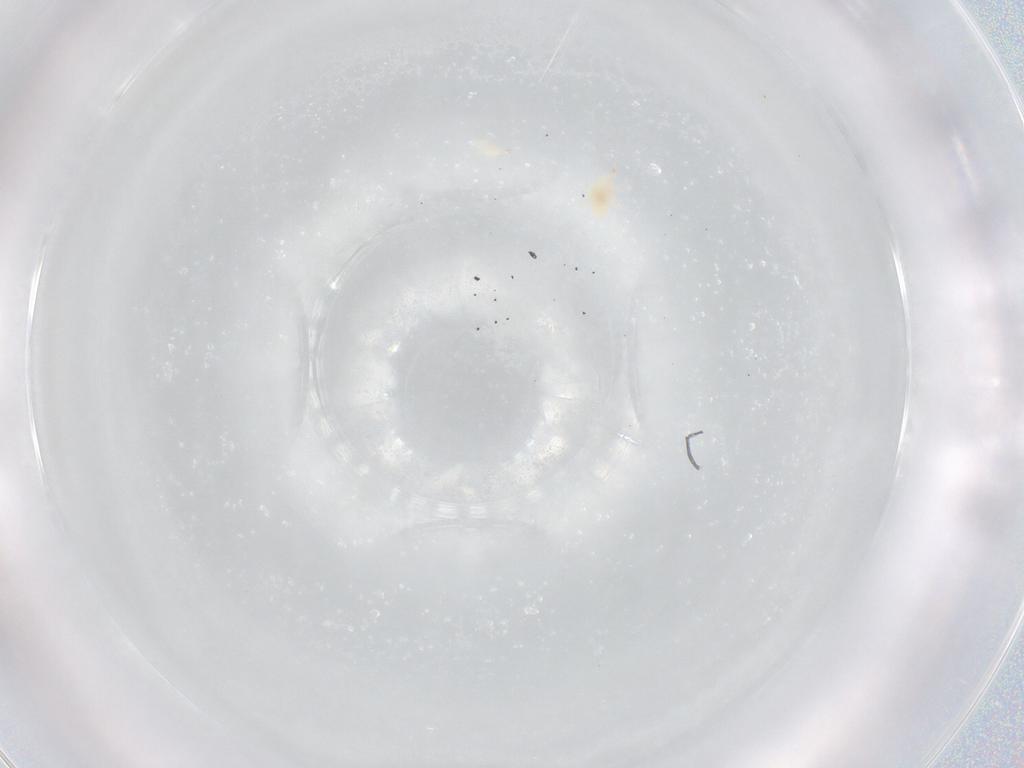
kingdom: Animalia
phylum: Arthropoda
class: Arachnida
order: Trombidiformes
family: Bdellidae
